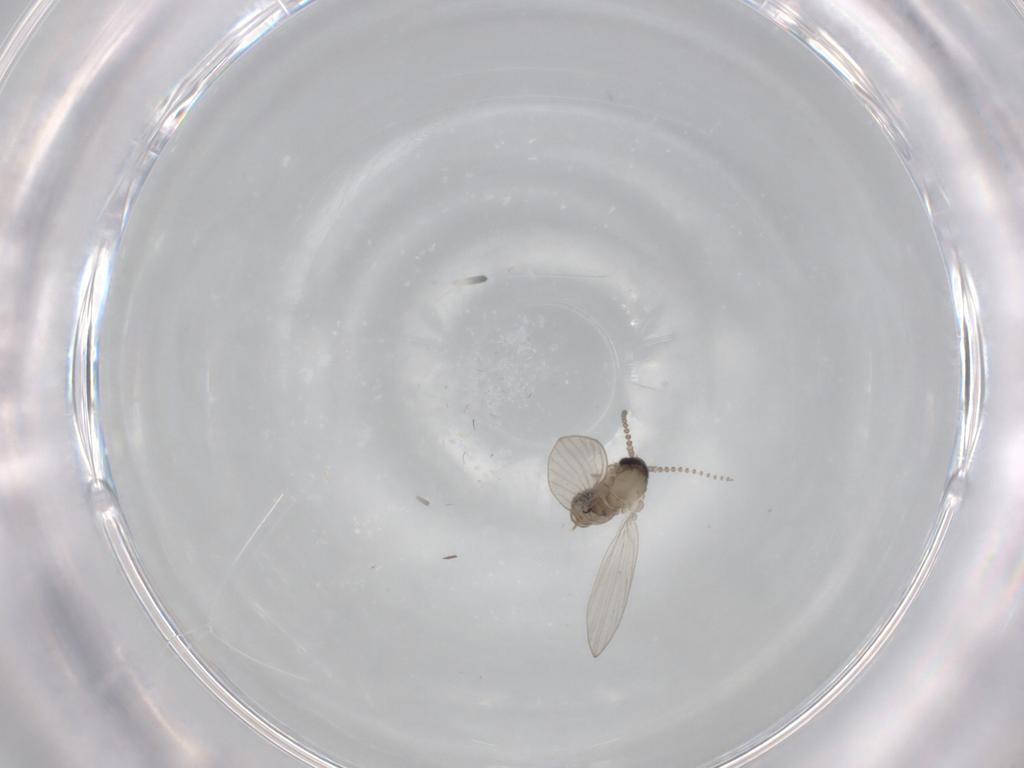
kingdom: Animalia
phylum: Arthropoda
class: Insecta
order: Diptera
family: Psychodidae
